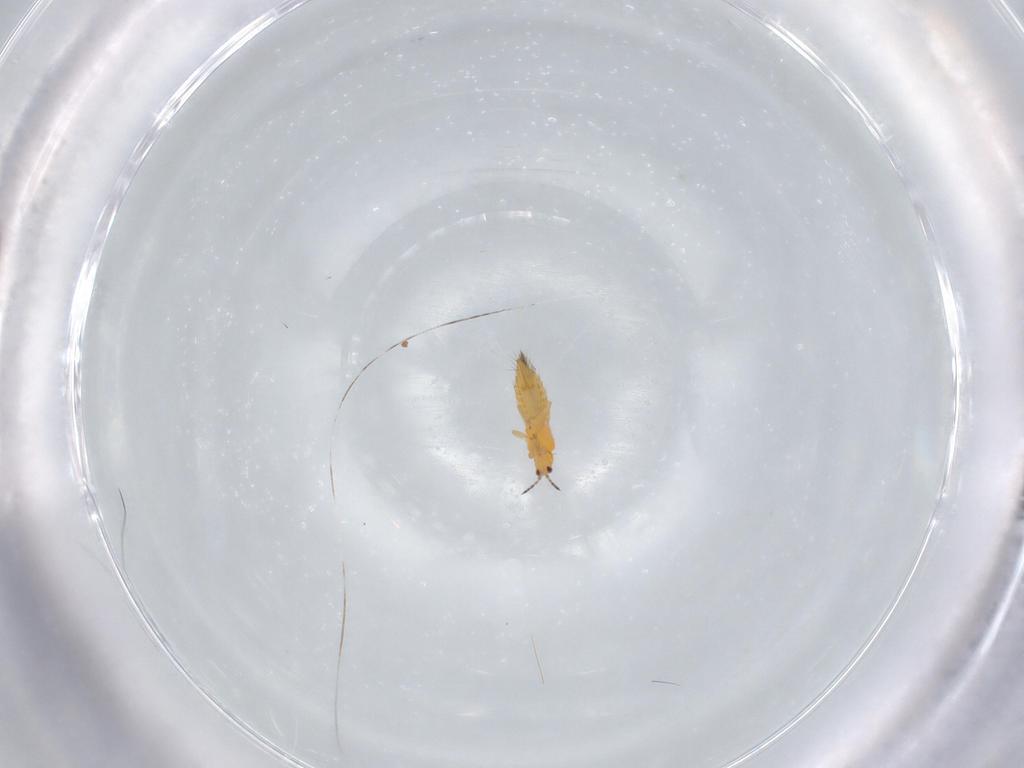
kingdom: Animalia
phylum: Arthropoda
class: Insecta
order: Thysanoptera
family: Thripidae
